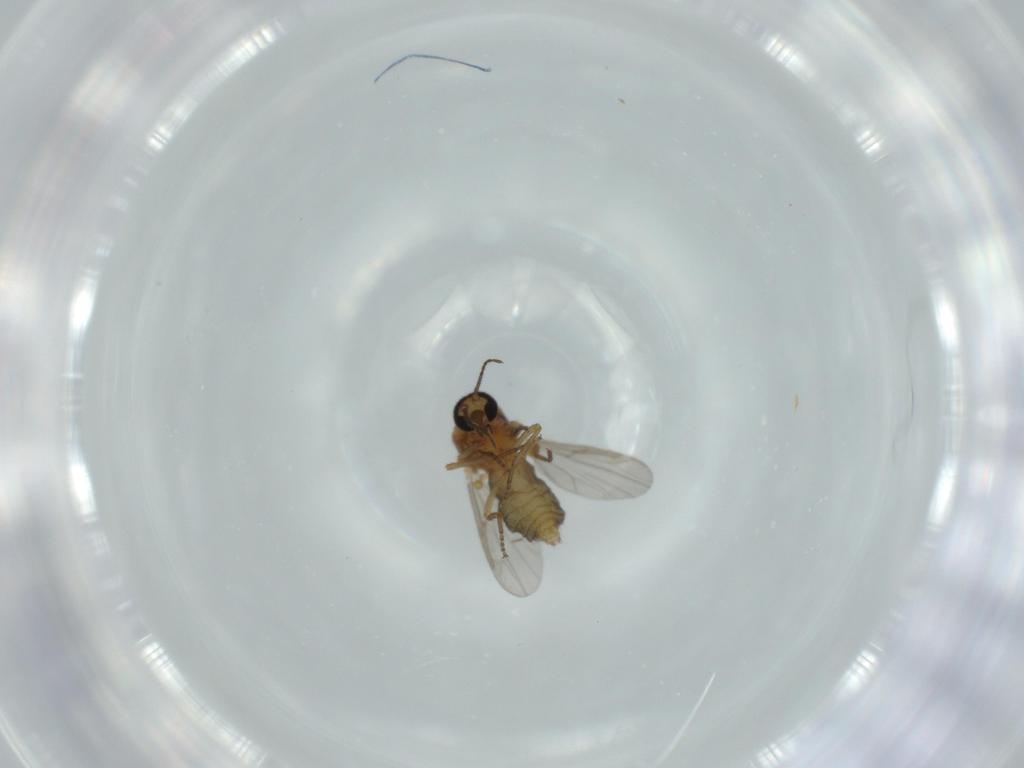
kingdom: Animalia
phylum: Arthropoda
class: Insecta
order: Diptera
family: Ceratopogonidae
